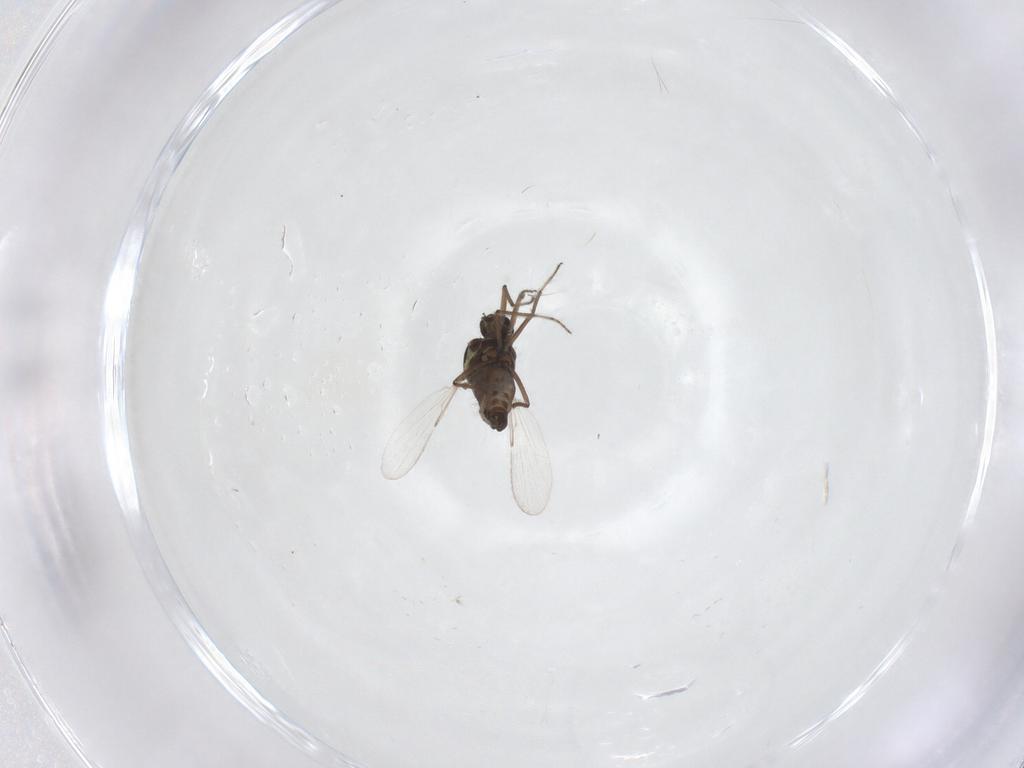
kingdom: Animalia
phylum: Arthropoda
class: Insecta
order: Diptera
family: Ceratopogonidae
